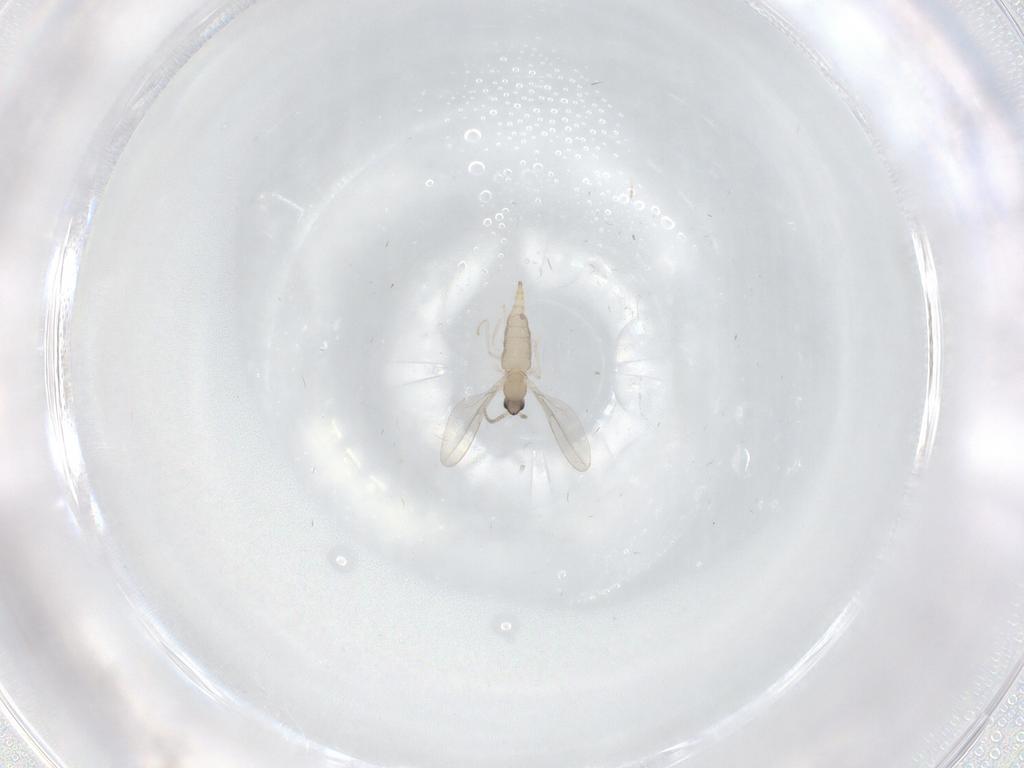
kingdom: Animalia
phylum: Arthropoda
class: Insecta
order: Diptera
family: Cecidomyiidae
